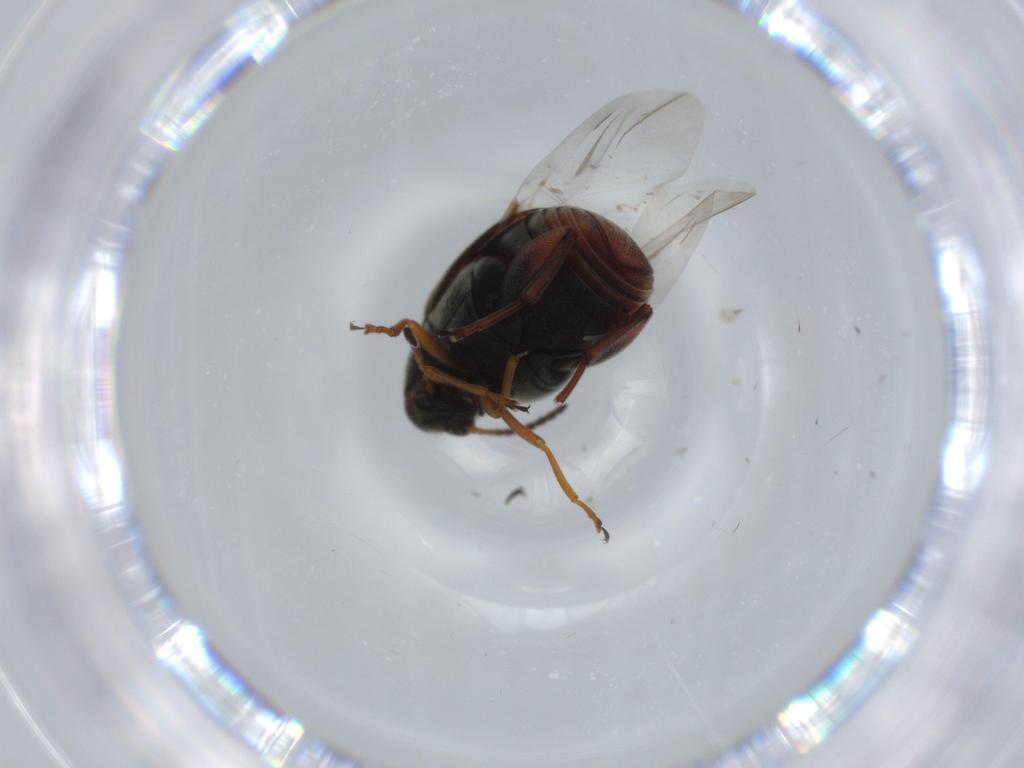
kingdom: Animalia
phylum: Arthropoda
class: Insecta
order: Coleoptera
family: Chrysomelidae
